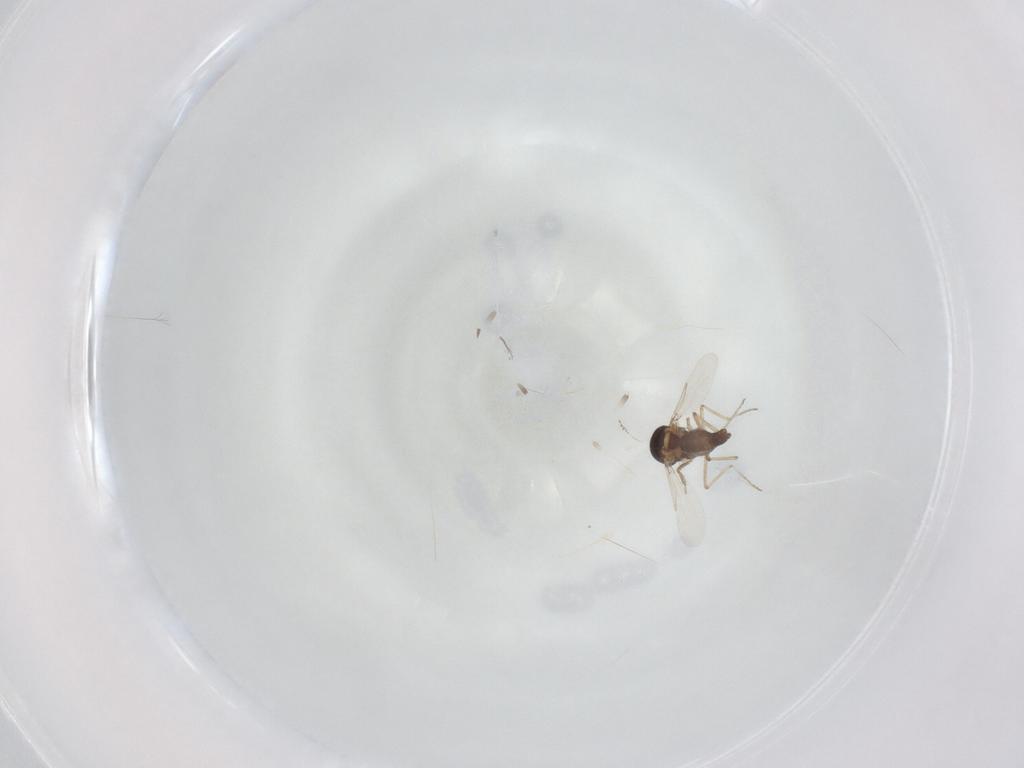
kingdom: Animalia
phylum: Arthropoda
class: Insecta
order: Diptera
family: Ceratopogonidae
